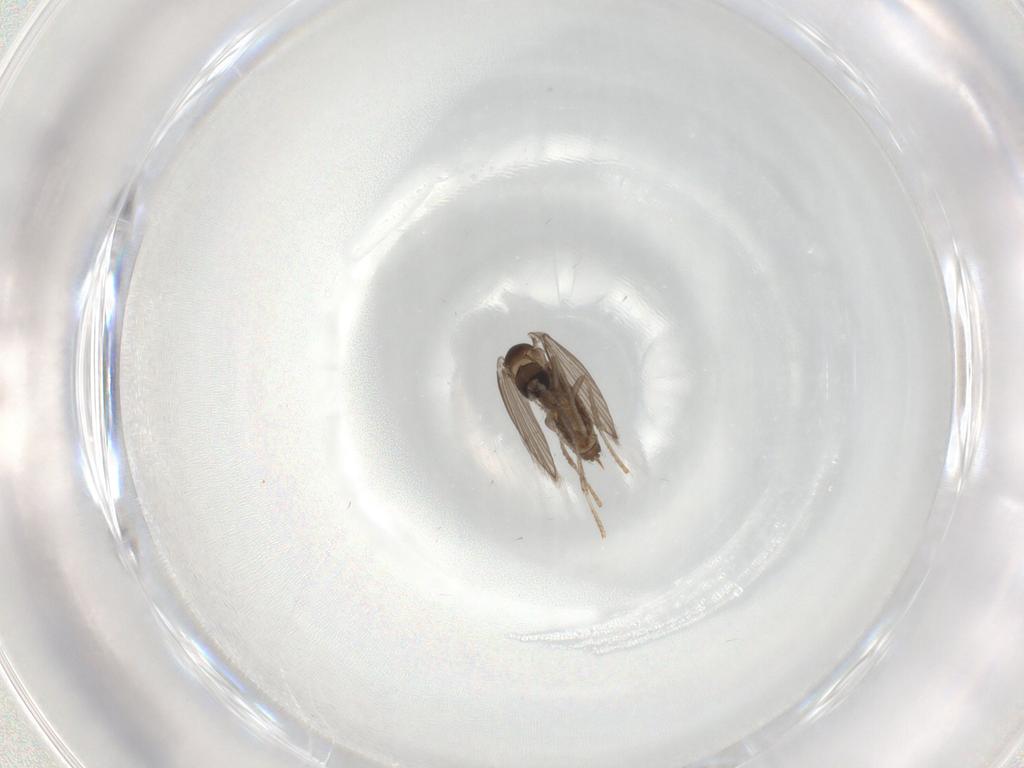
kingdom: Animalia
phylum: Arthropoda
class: Insecta
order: Diptera
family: Psychodidae
